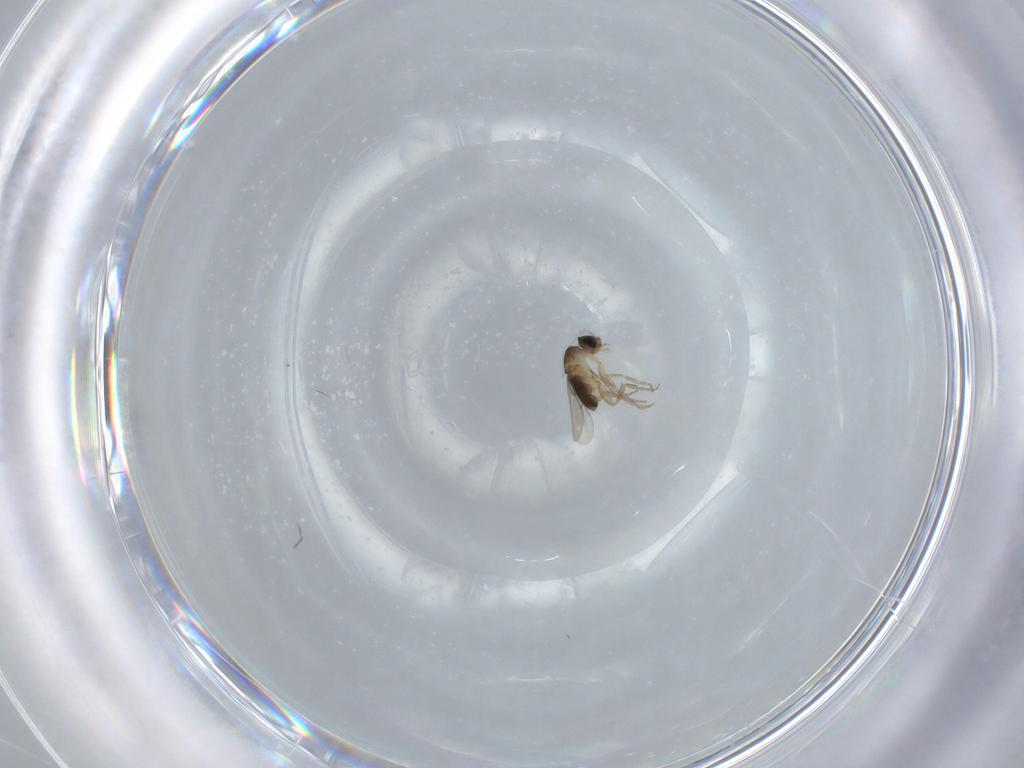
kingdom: Animalia
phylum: Arthropoda
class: Insecta
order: Diptera
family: Phoridae
